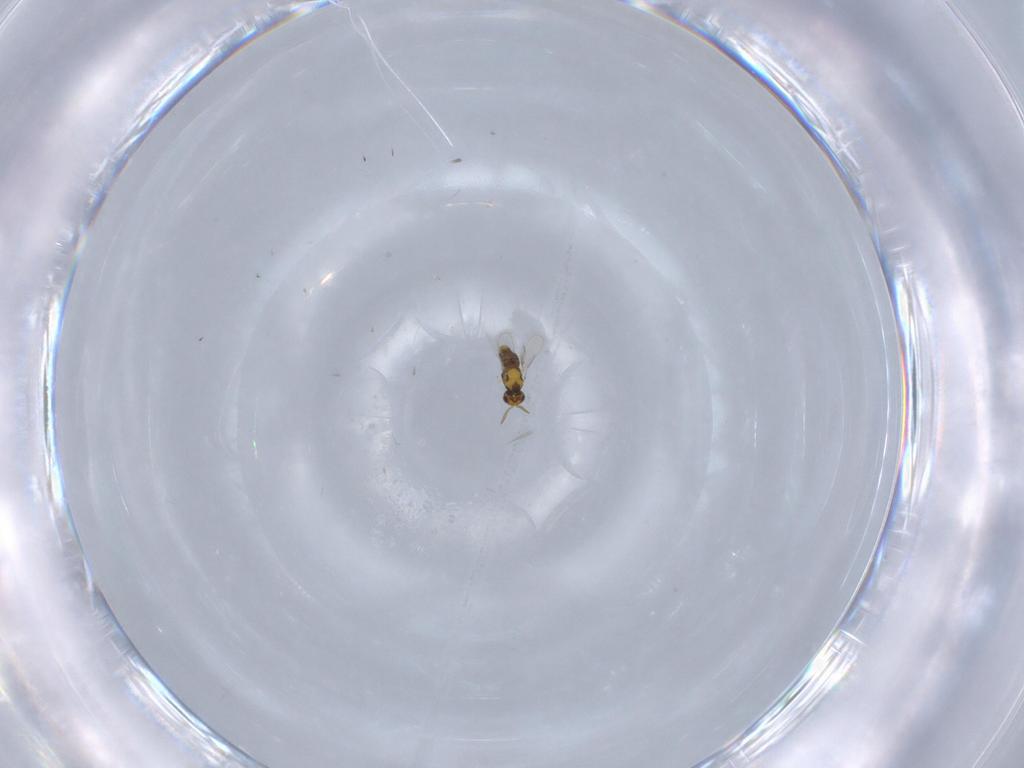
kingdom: Animalia
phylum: Arthropoda
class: Insecta
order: Hymenoptera
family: Aphelinidae
